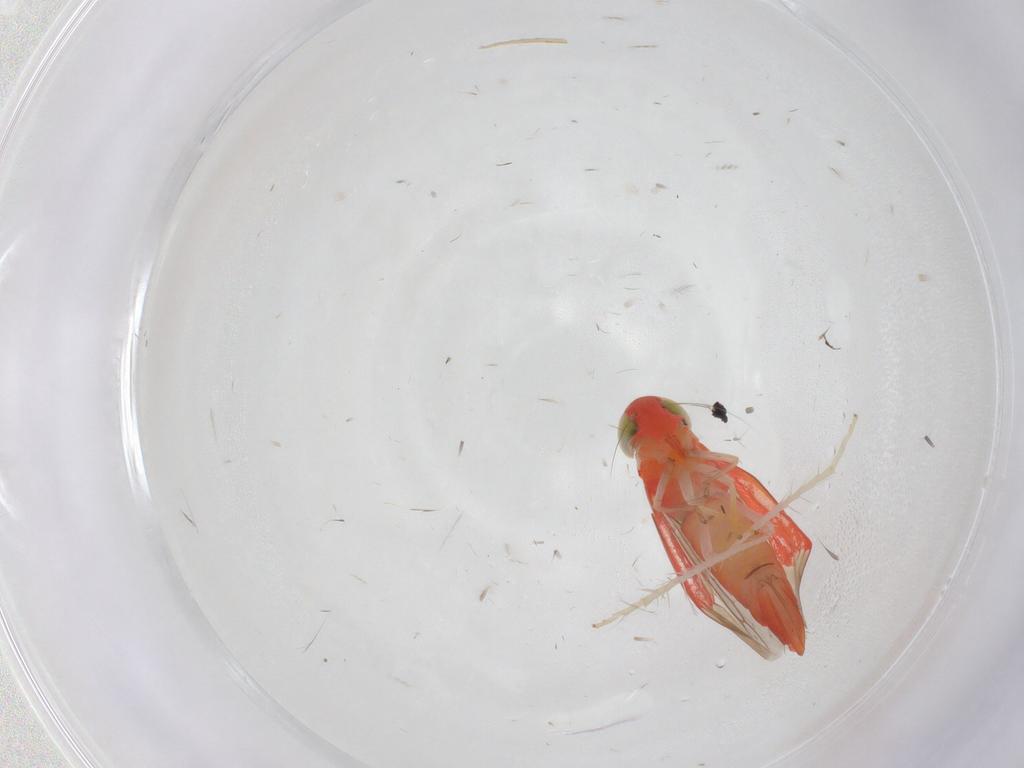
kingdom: Animalia
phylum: Arthropoda
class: Insecta
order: Hemiptera
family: Cicadellidae
